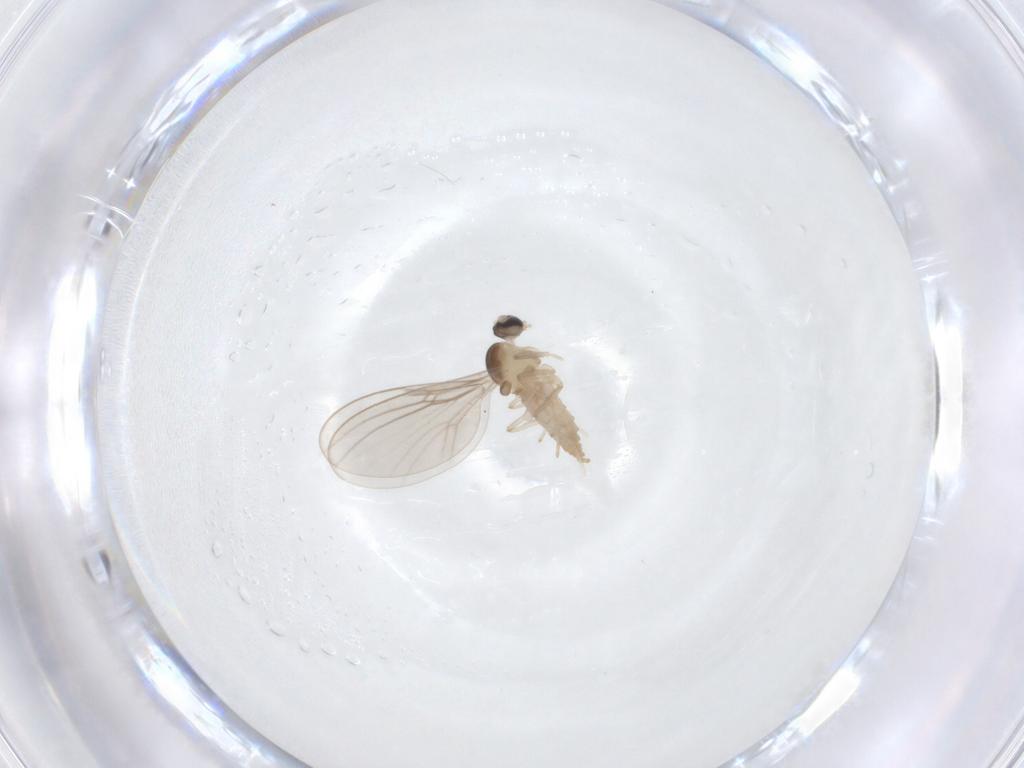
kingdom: Animalia
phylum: Arthropoda
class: Insecta
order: Diptera
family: Cecidomyiidae
